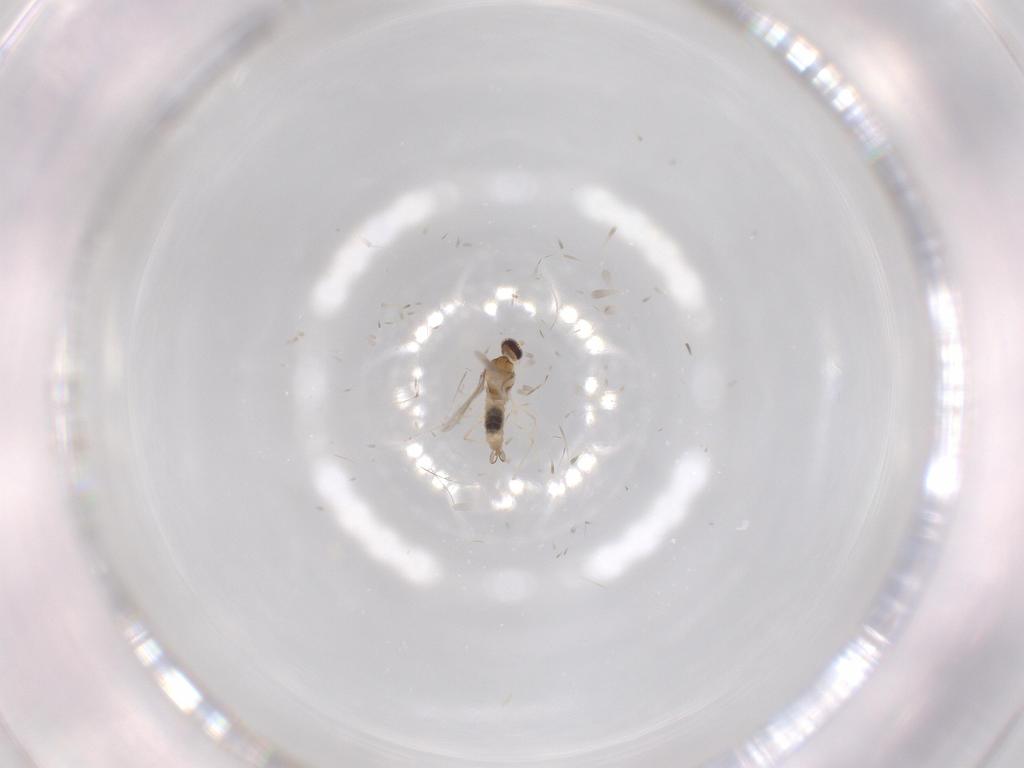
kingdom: Animalia
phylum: Arthropoda
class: Insecta
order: Diptera
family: Cecidomyiidae
